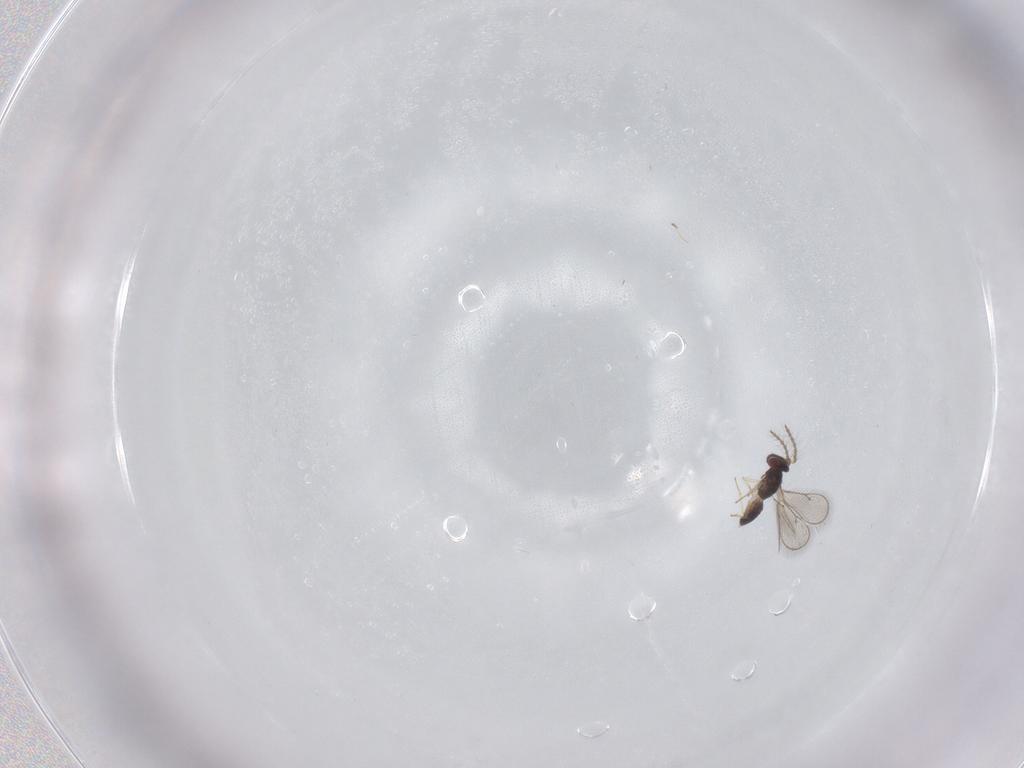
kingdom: Animalia
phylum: Arthropoda
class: Insecta
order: Hymenoptera
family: Eulophidae
